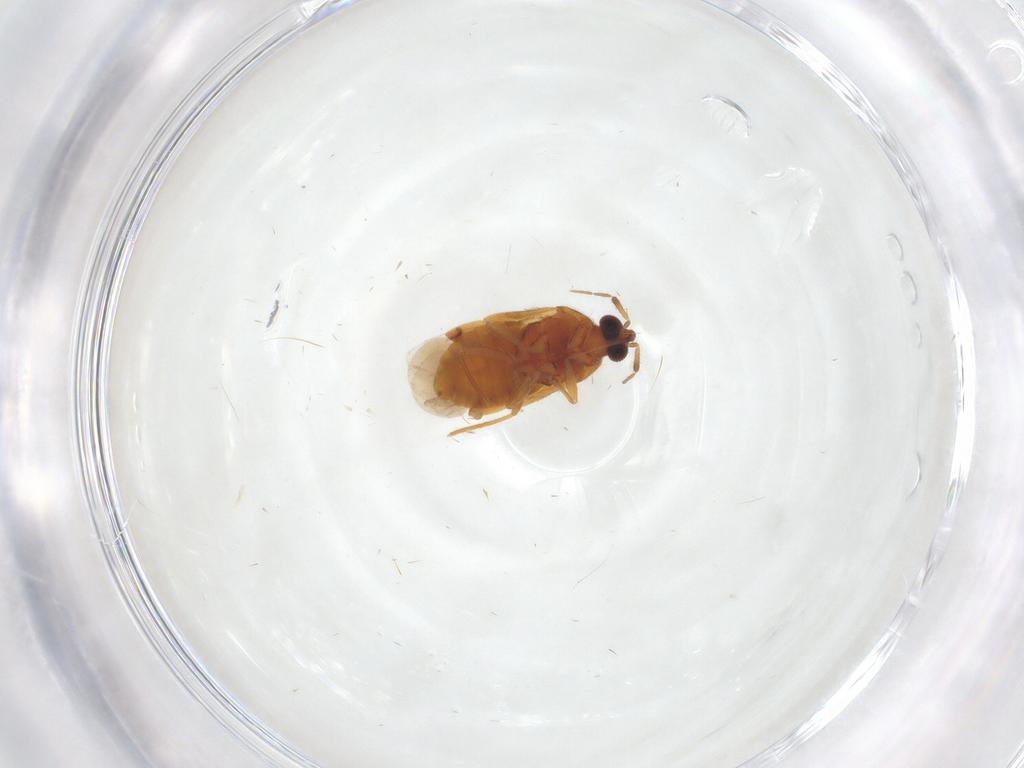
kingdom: Animalia
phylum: Arthropoda
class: Insecta
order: Hemiptera
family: Anthocoridae
